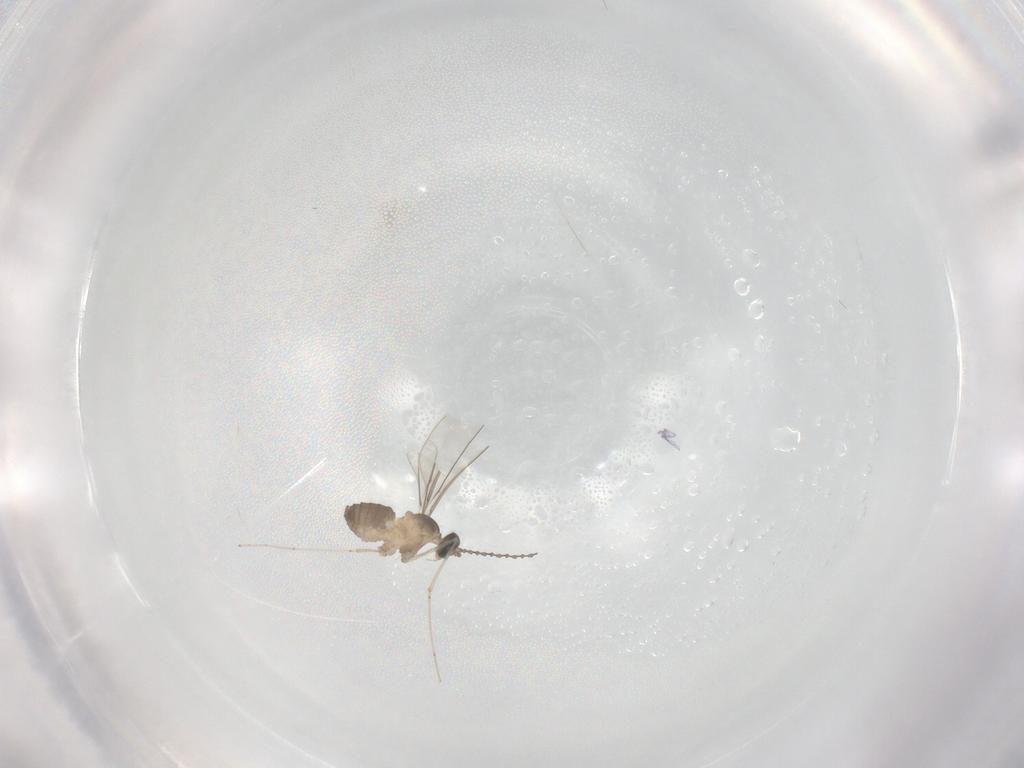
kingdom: Animalia
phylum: Arthropoda
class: Insecta
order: Diptera
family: Cecidomyiidae
